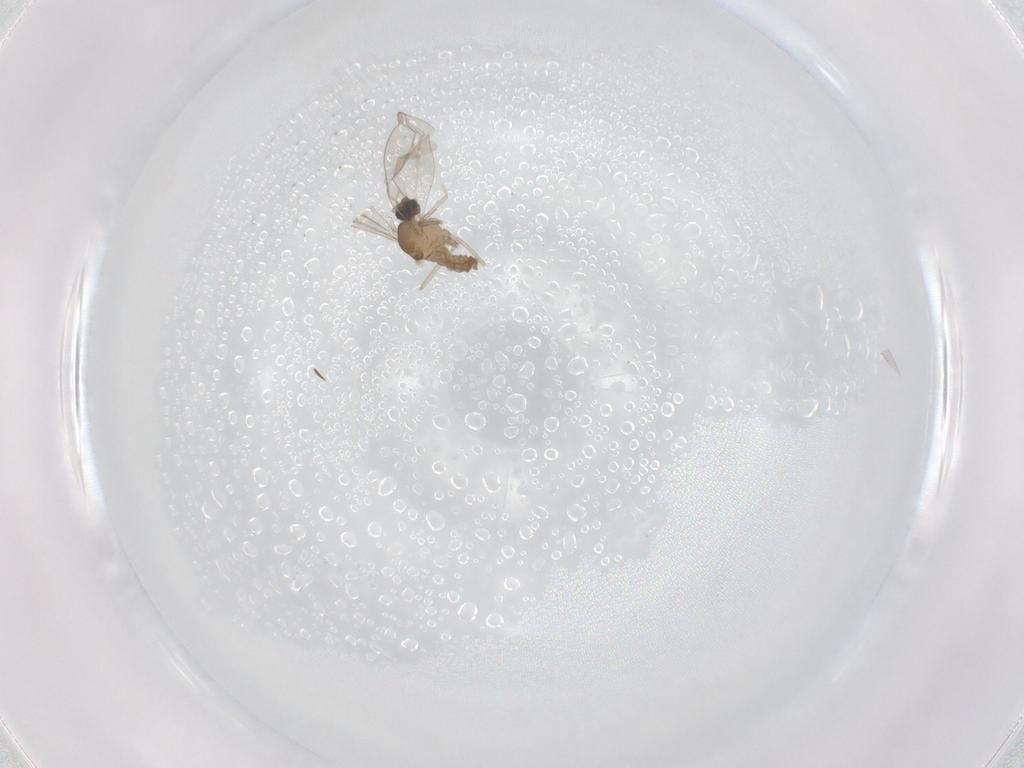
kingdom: Animalia
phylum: Arthropoda
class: Insecta
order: Diptera
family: Cecidomyiidae
